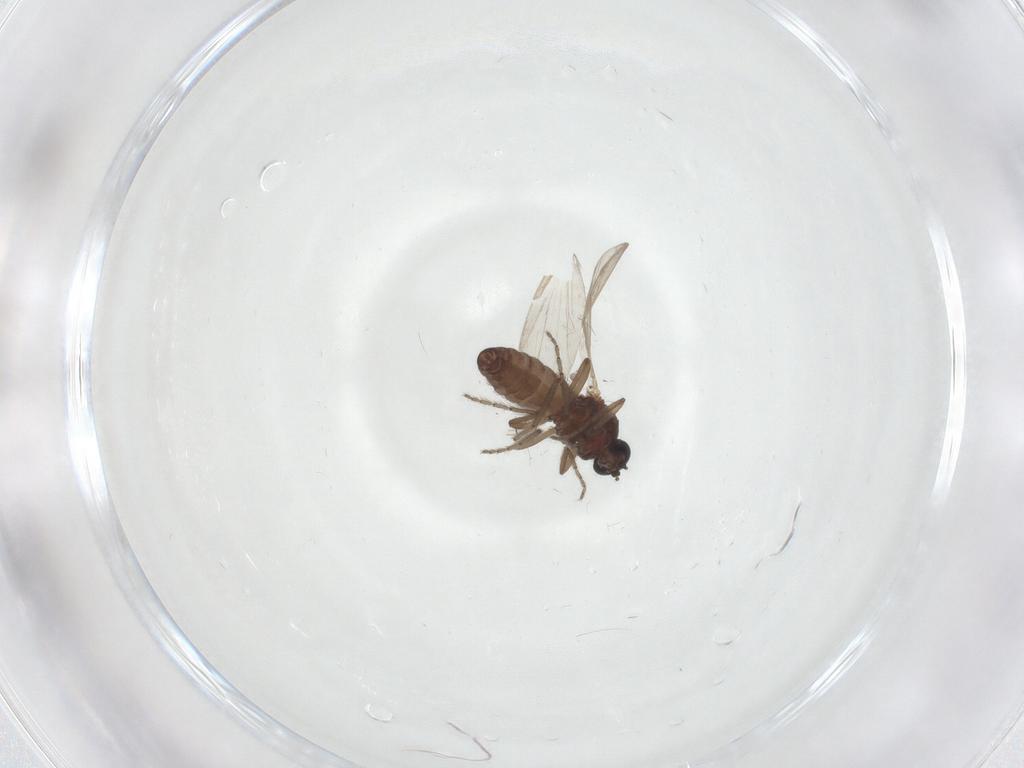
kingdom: Animalia
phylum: Arthropoda
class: Insecta
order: Diptera
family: Ceratopogonidae
